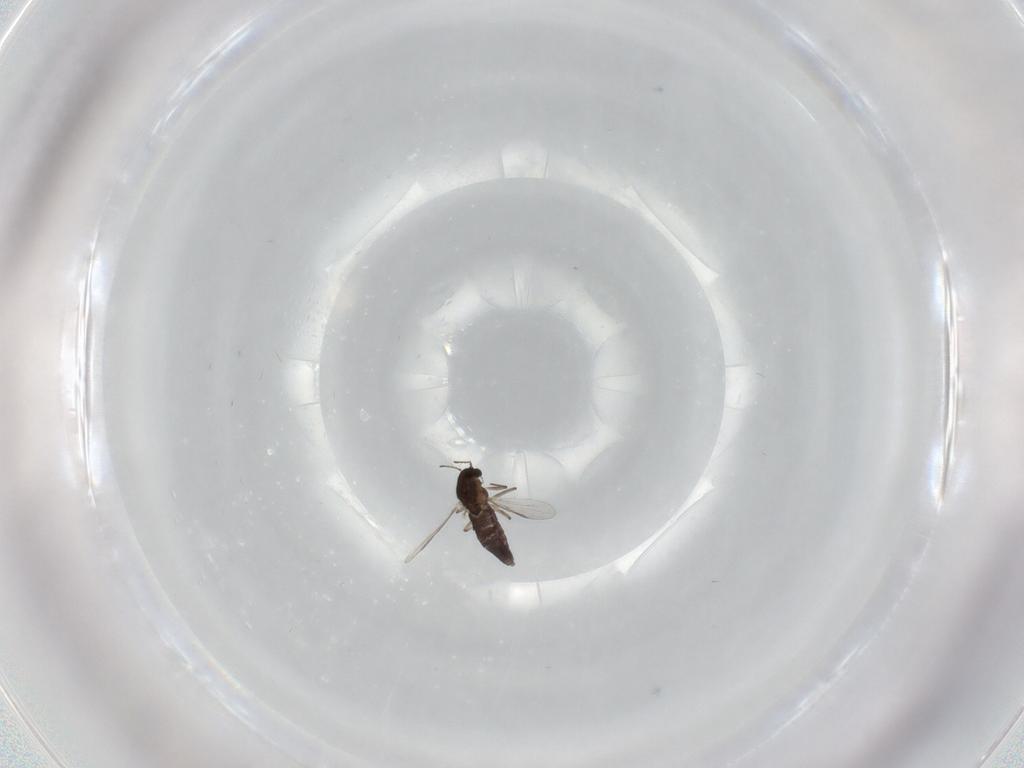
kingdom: Animalia
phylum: Arthropoda
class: Insecta
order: Diptera
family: Chironomidae
